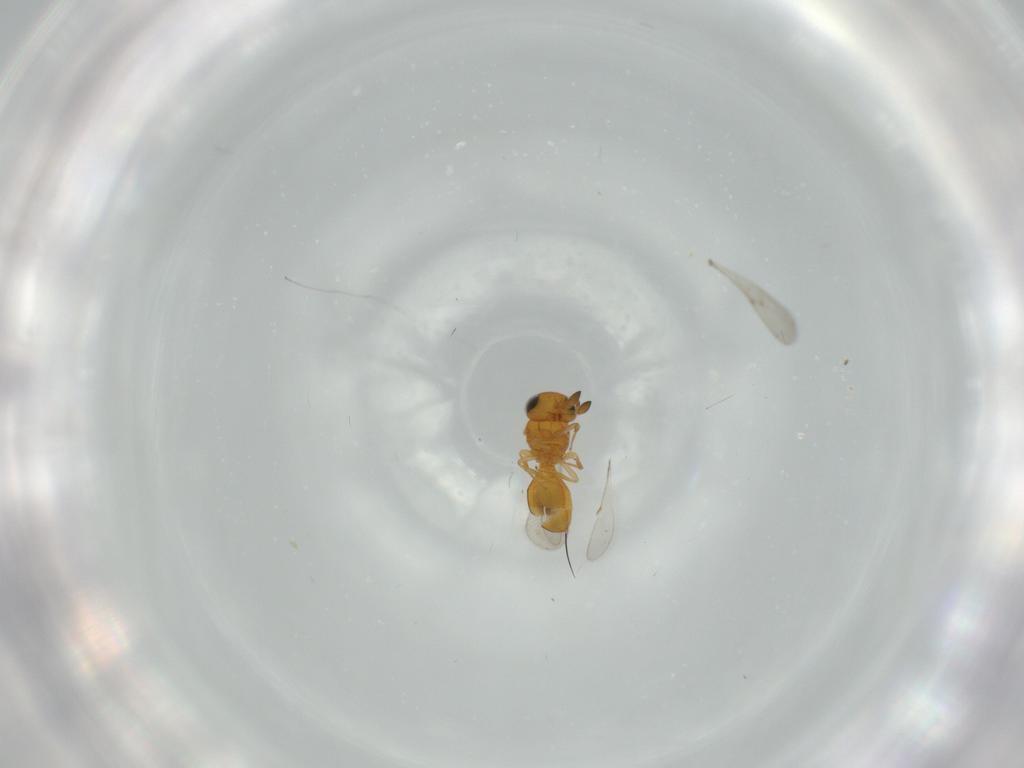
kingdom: Animalia
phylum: Arthropoda
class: Insecta
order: Hymenoptera
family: Scelionidae
